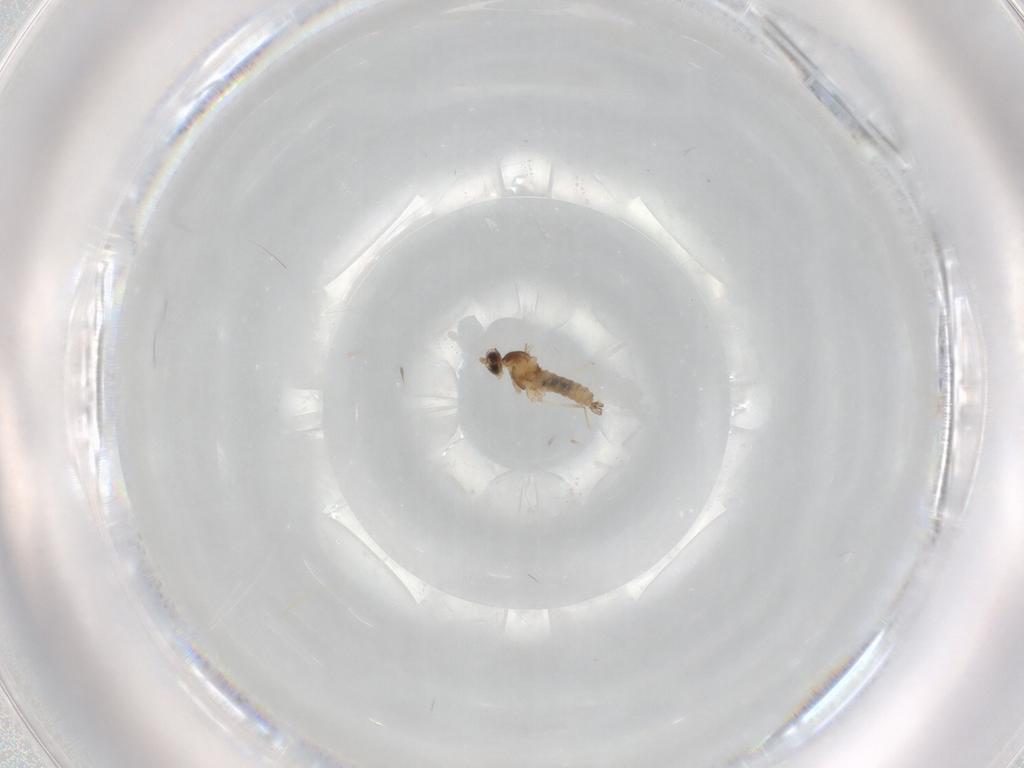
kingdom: Animalia
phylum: Arthropoda
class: Insecta
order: Diptera
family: Cecidomyiidae
